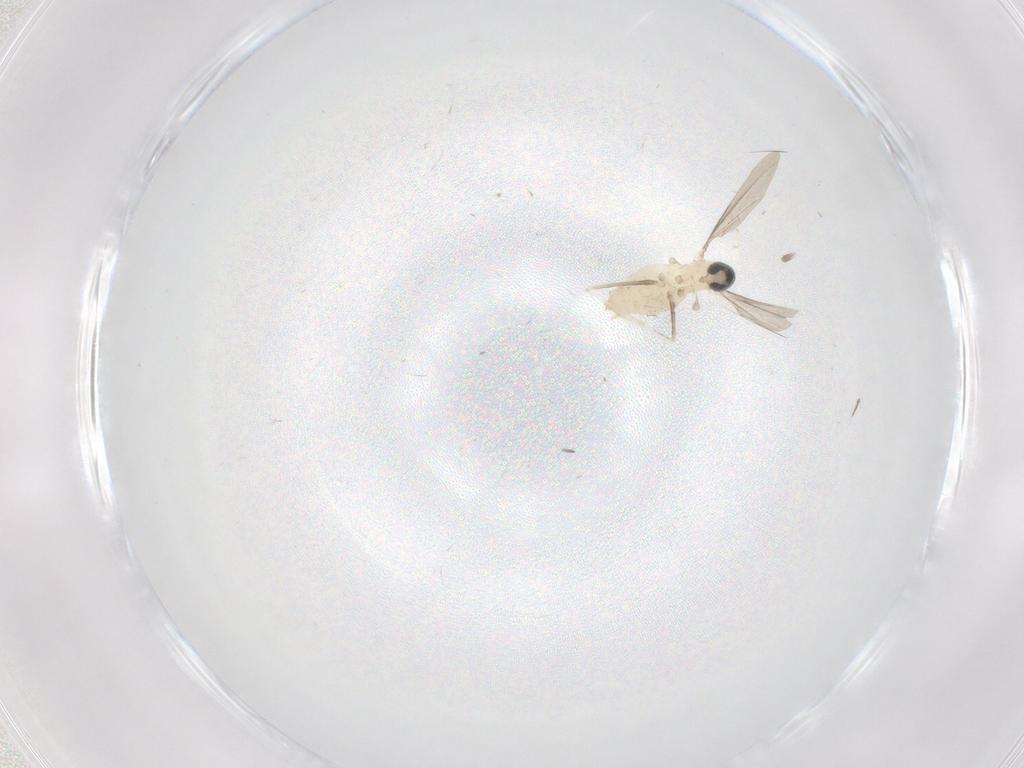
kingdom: Animalia
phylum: Arthropoda
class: Insecta
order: Diptera
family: Cecidomyiidae
